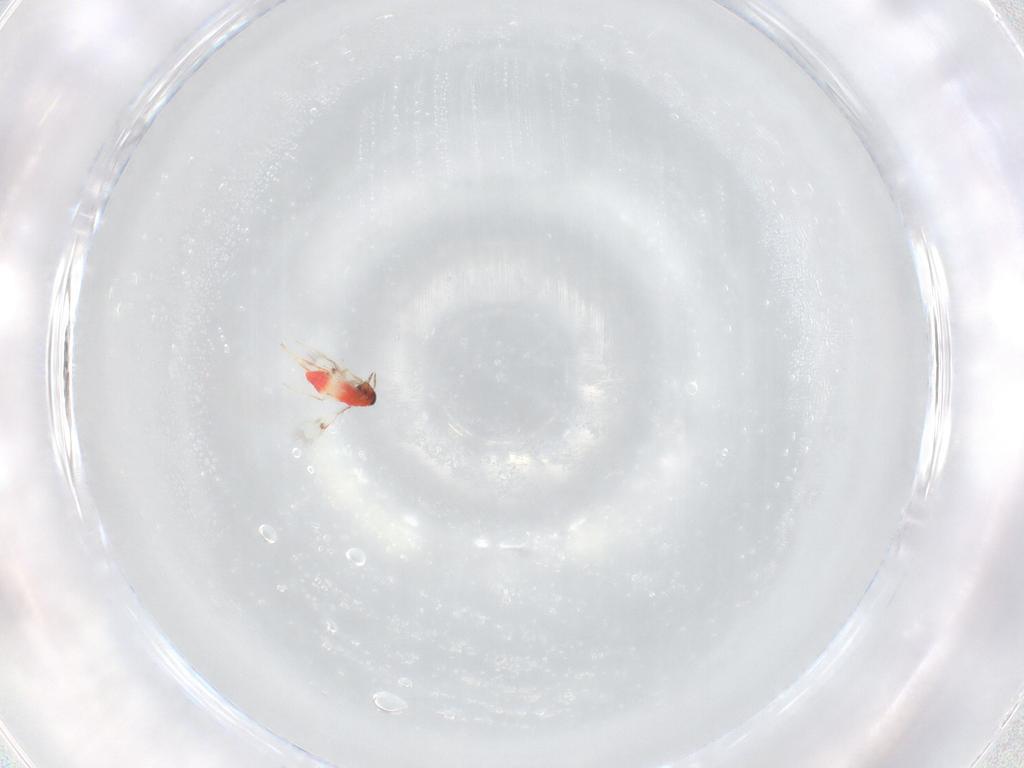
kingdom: Animalia
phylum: Arthropoda
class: Insecta
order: Hymenoptera
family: Trichogrammatidae
